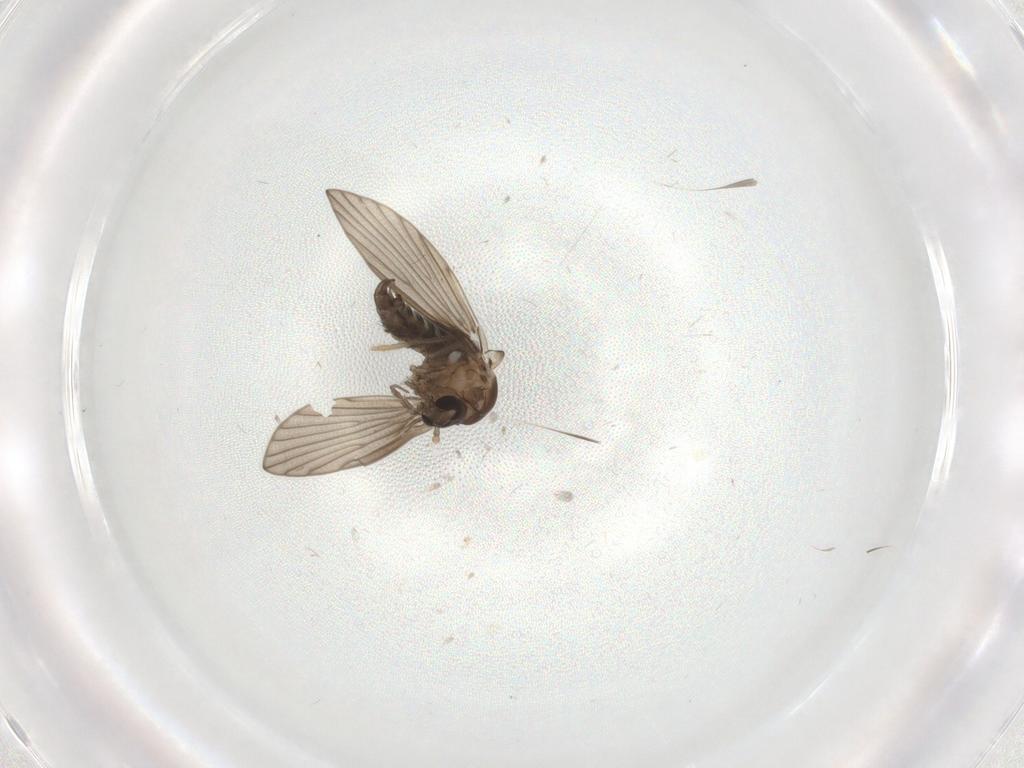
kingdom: Animalia
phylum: Arthropoda
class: Insecta
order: Diptera
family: Psychodidae
